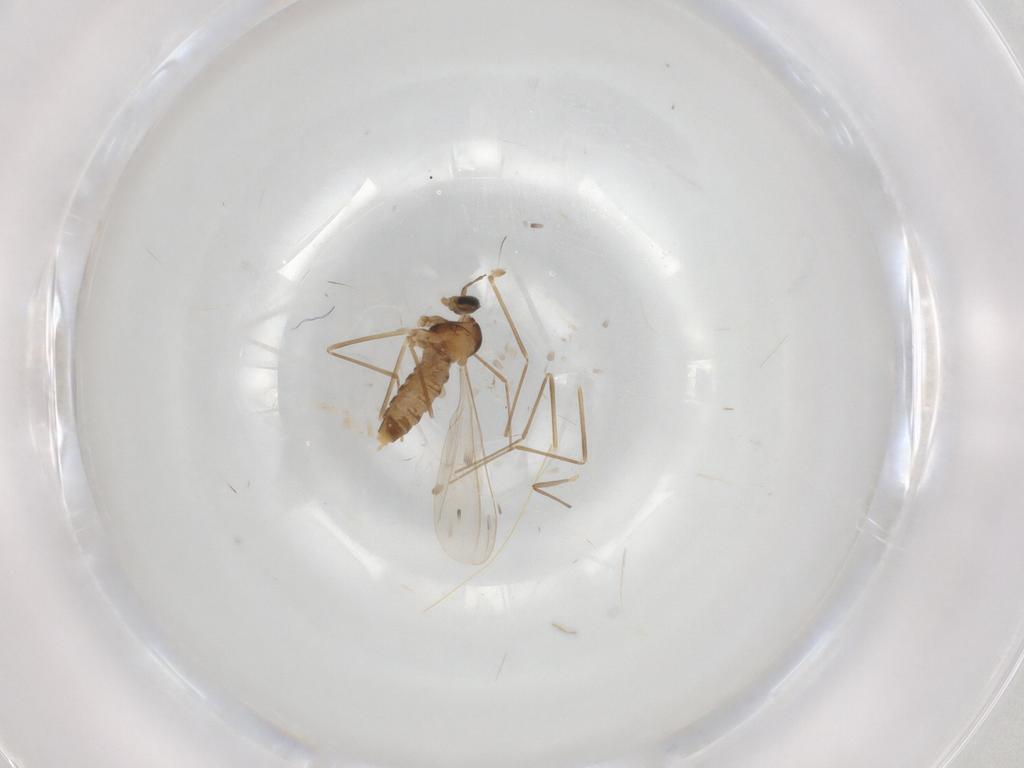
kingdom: Animalia
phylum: Arthropoda
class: Insecta
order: Diptera
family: Cecidomyiidae
